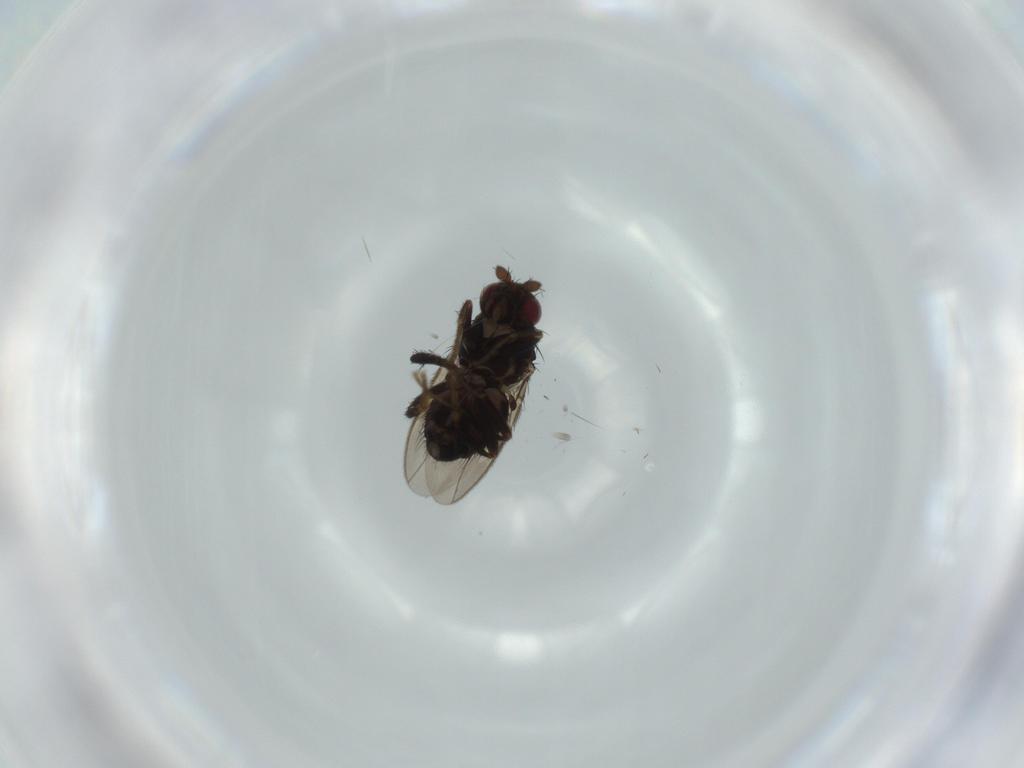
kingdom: Animalia
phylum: Arthropoda
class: Insecta
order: Diptera
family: Sphaeroceridae
